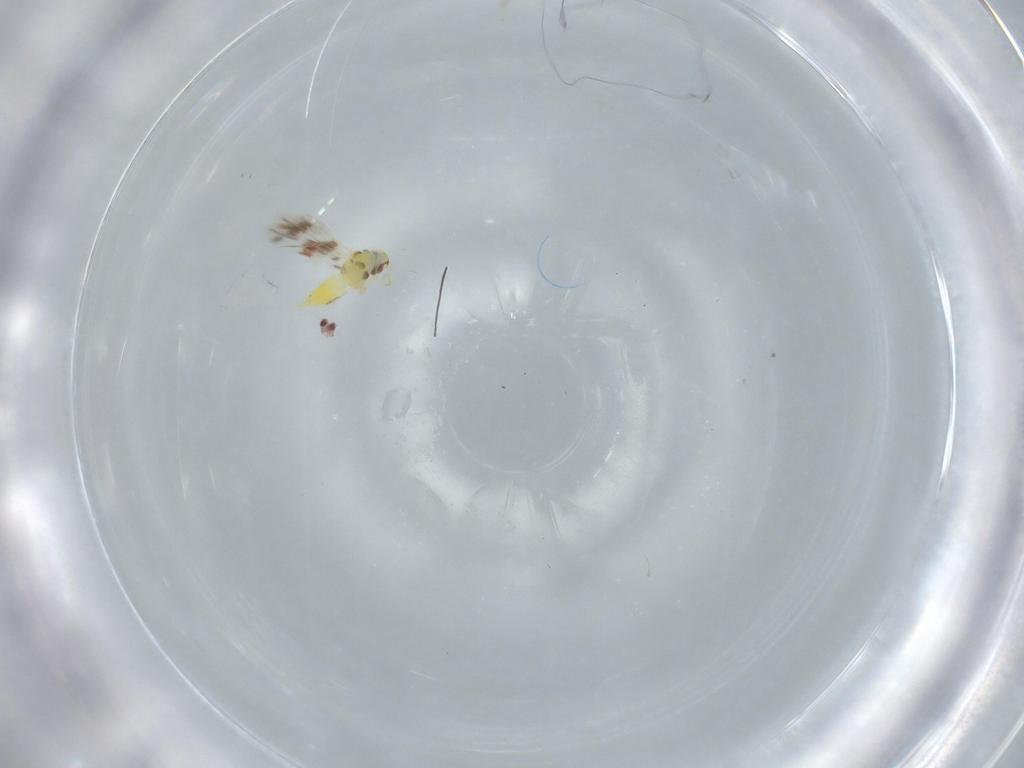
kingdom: Animalia
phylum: Arthropoda
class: Insecta
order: Hemiptera
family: Aleyrodidae
